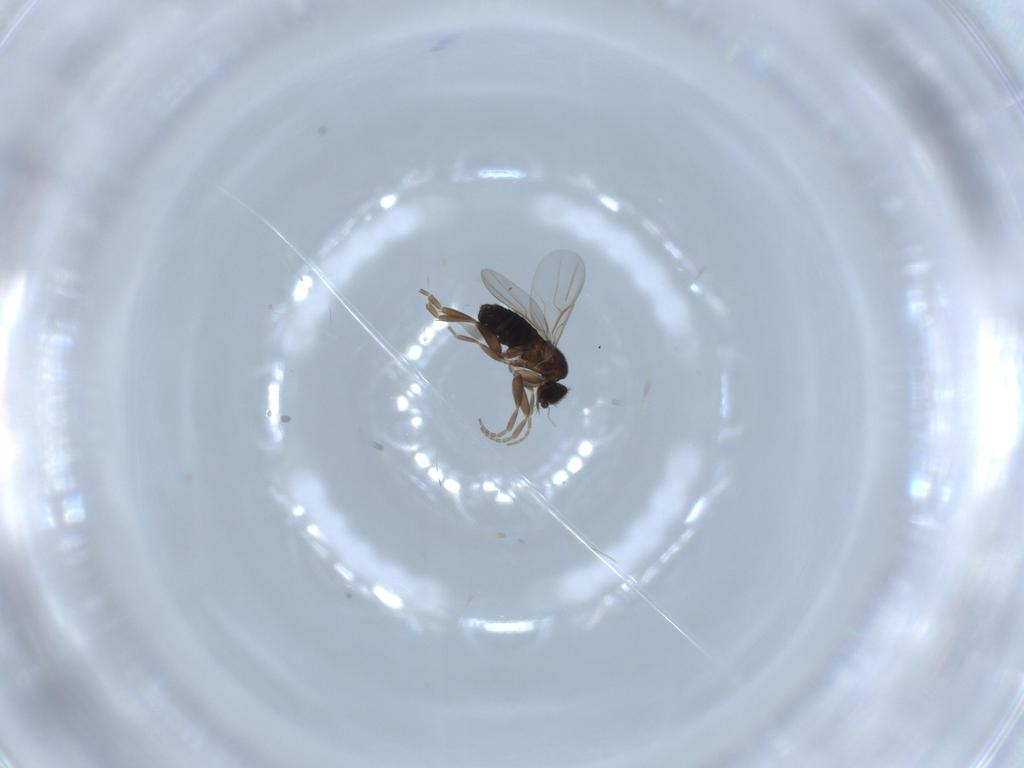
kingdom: Animalia
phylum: Arthropoda
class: Insecta
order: Diptera
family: Phoridae
